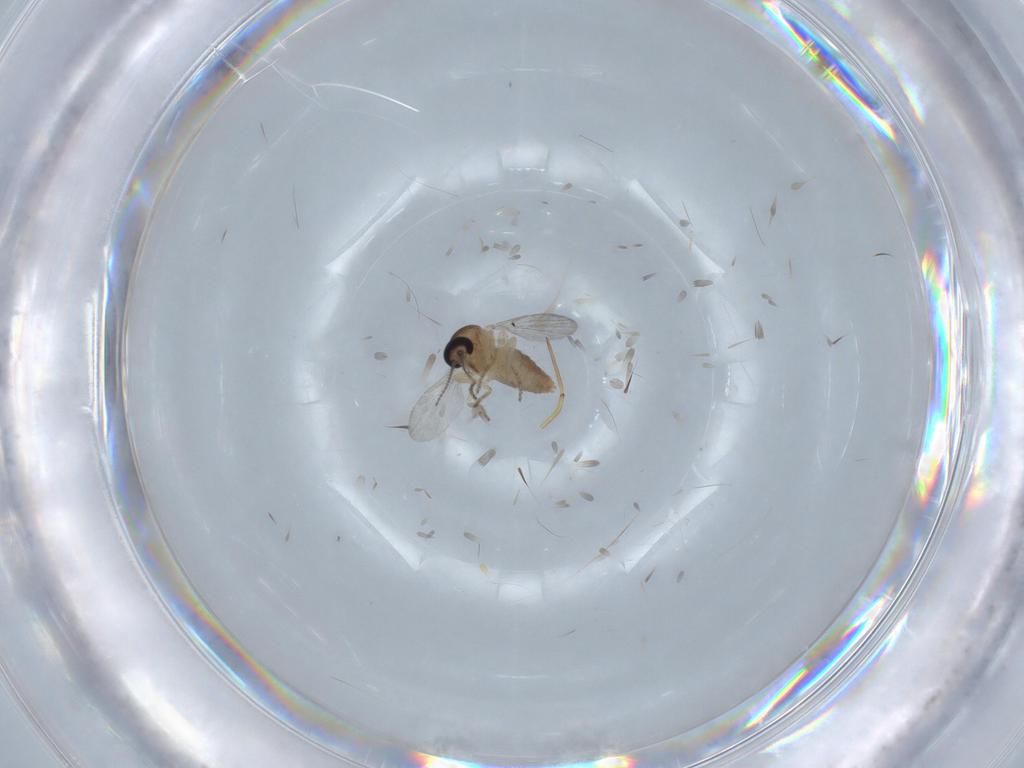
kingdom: Animalia
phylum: Arthropoda
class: Insecta
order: Diptera
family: Ceratopogonidae
